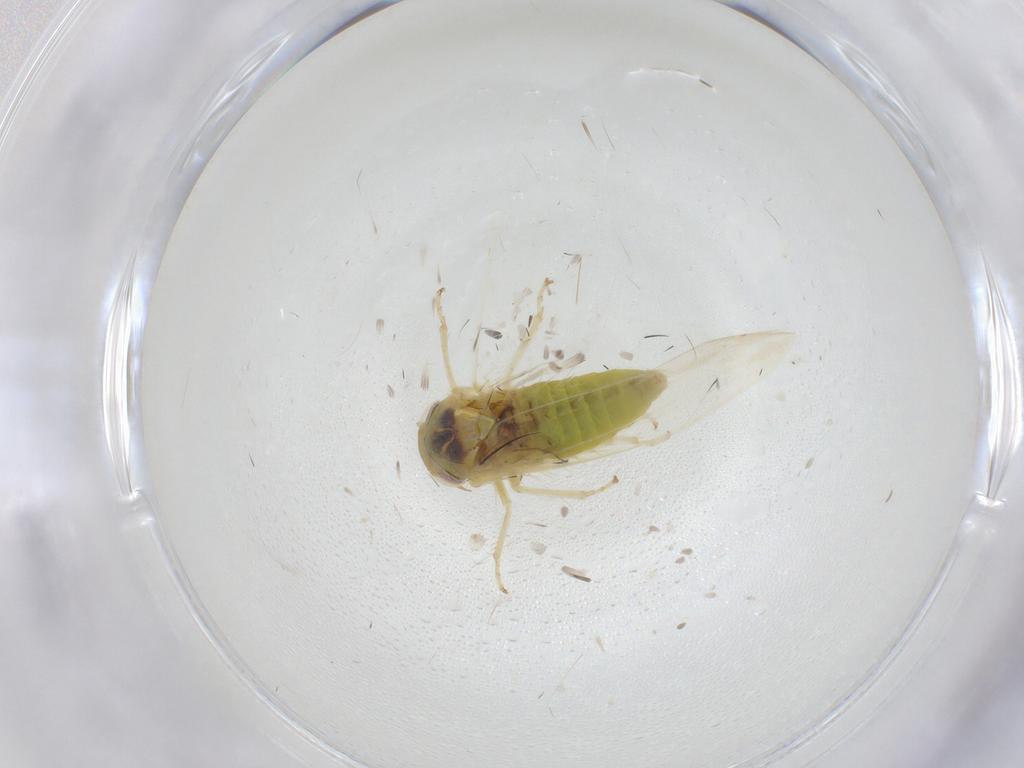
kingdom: Animalia
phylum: Arthropoda
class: Insecta
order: Hemiptera
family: Cicadellidae
